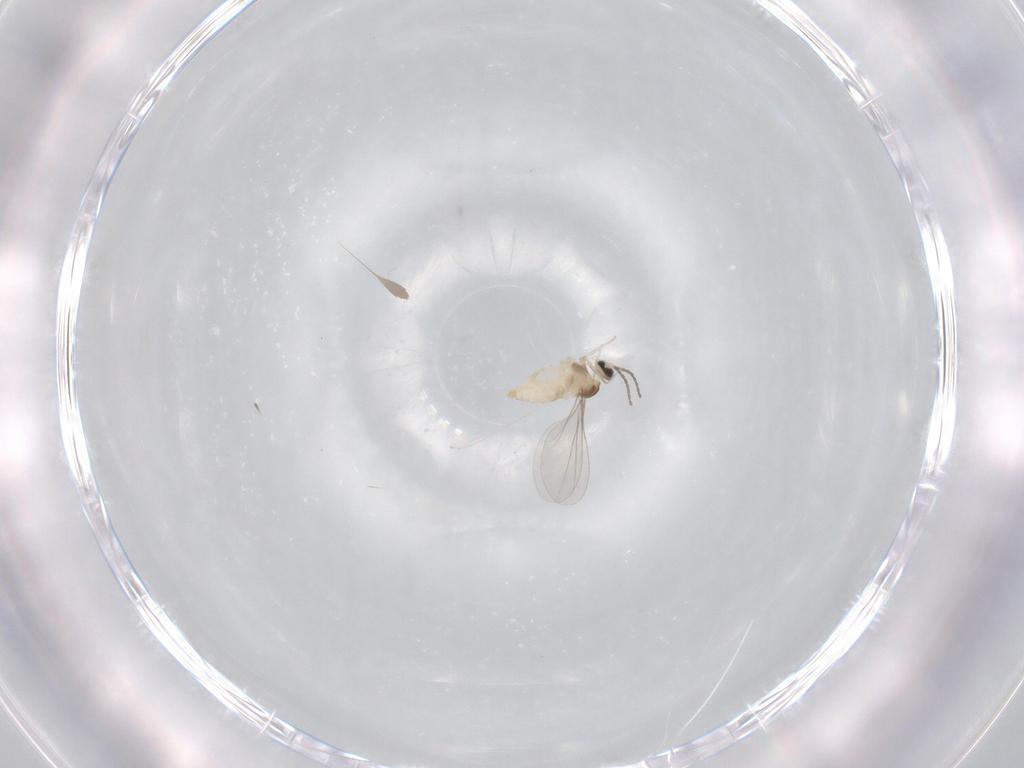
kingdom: Animalia
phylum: Arthropoda
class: Insecta
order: Diptera
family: Cecidomyiidae
